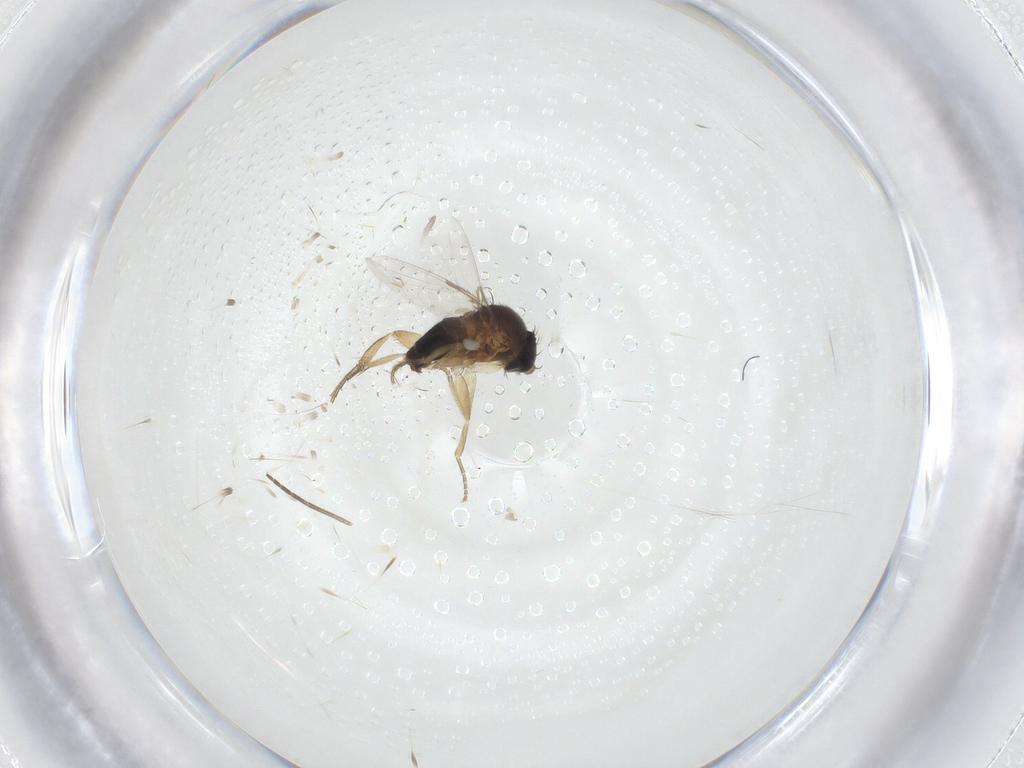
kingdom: Animalia
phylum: Arthropoda
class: Insecta
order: Diptera
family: Sciaridae
